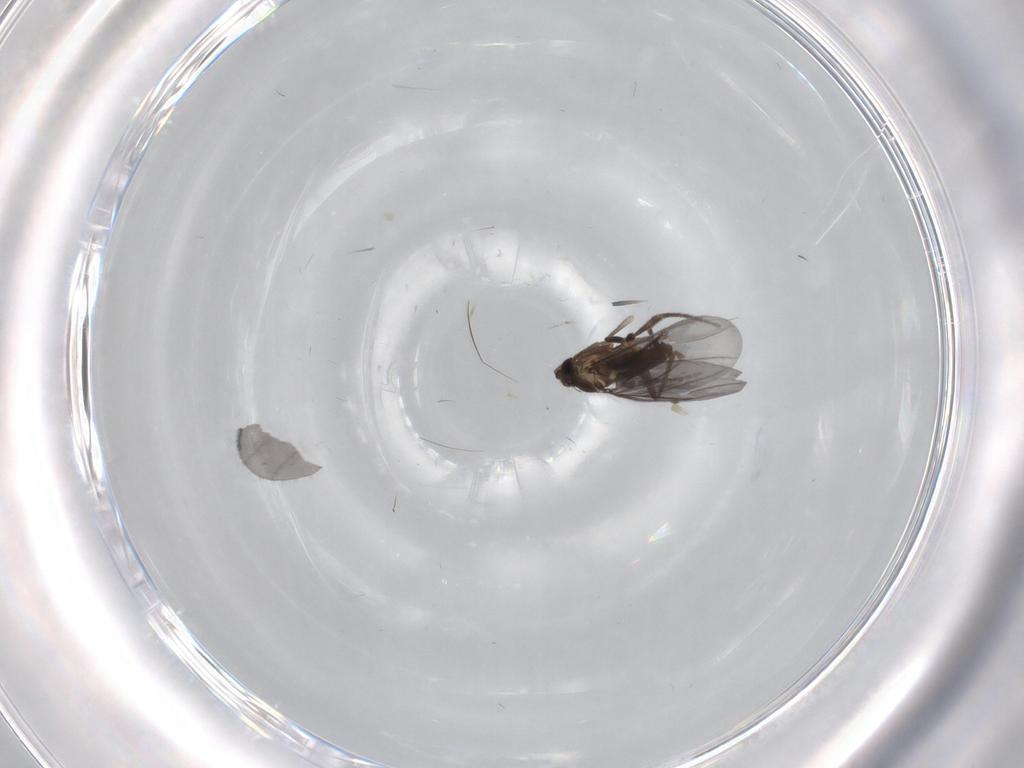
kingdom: Animalia
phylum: Arthropoda
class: Insecta
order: Diptera
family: Phoridae
